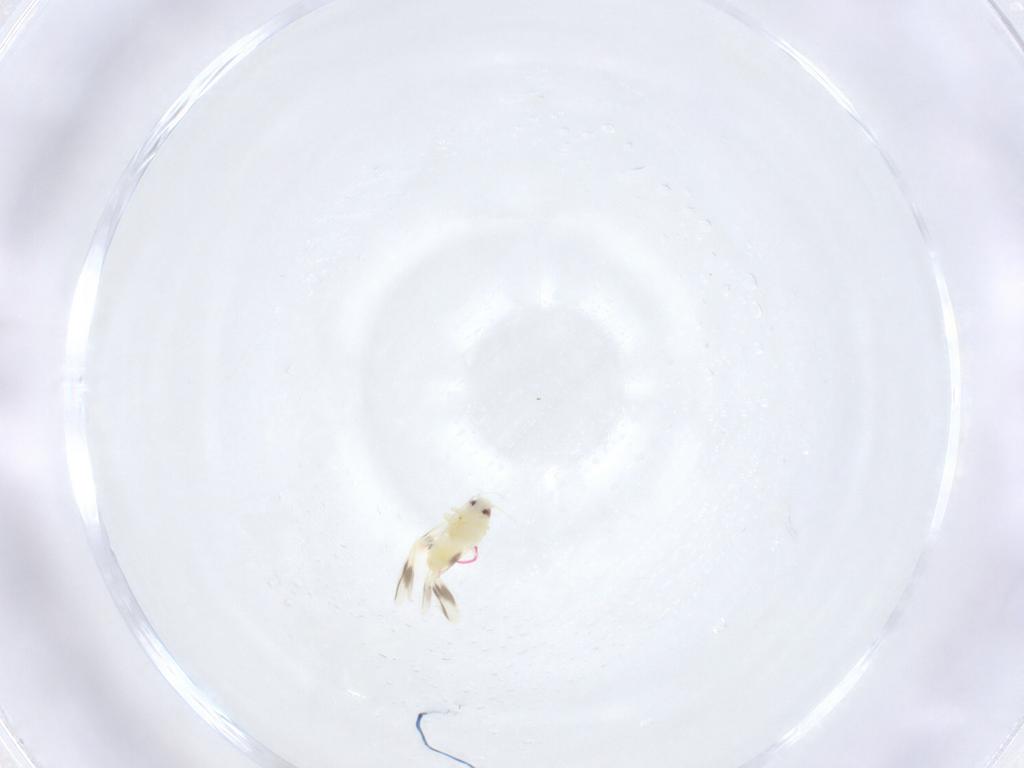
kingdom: Animalia
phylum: Arthropoda
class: Insecta
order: Hemiptera
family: Aleyrodidae
